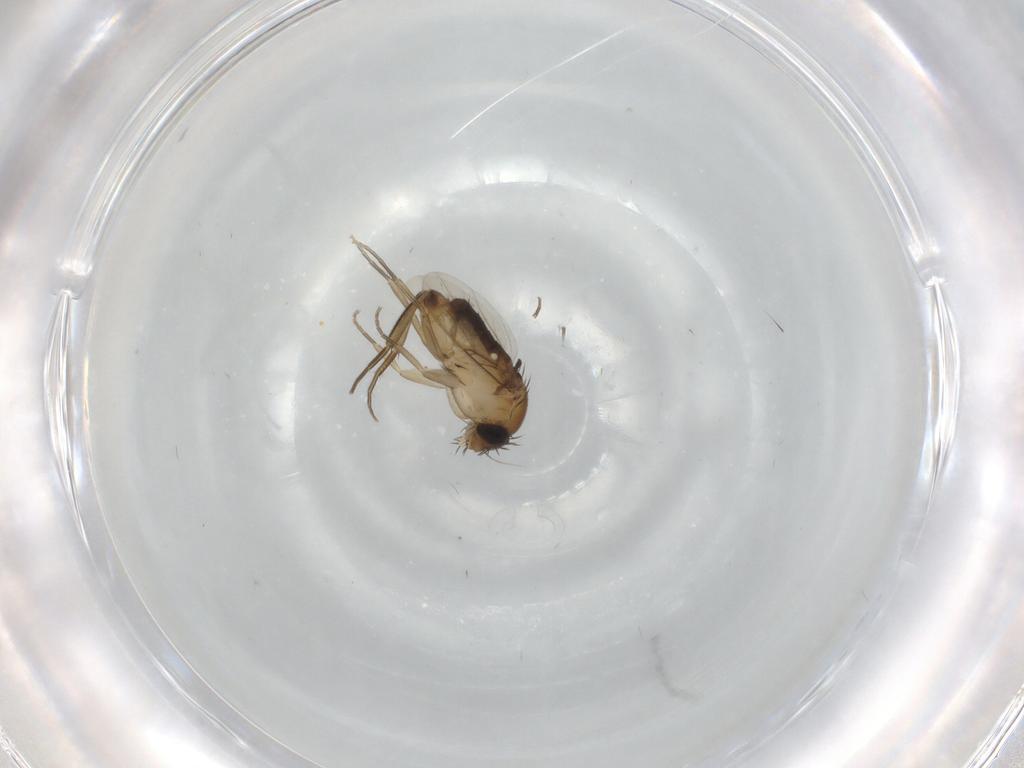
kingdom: Animalia
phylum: Arthropoda
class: Insecta
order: Diptera
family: Phoridae
